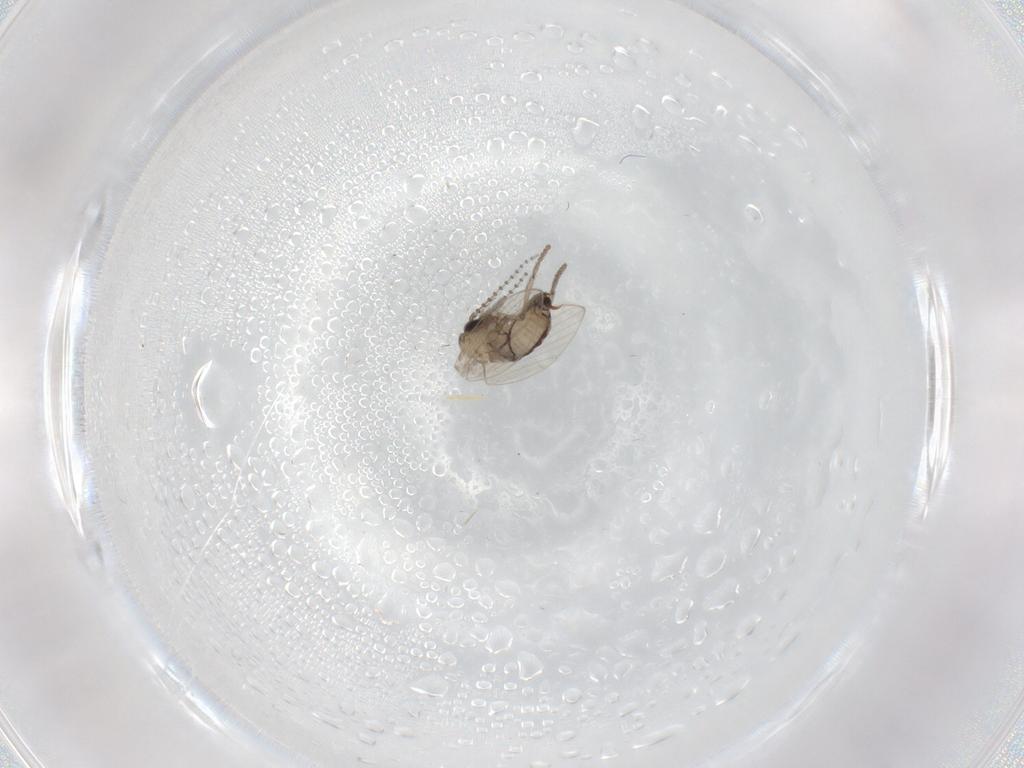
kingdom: Animalia
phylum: Arthropoda
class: Insecta
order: Diptera
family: Psychodidae
